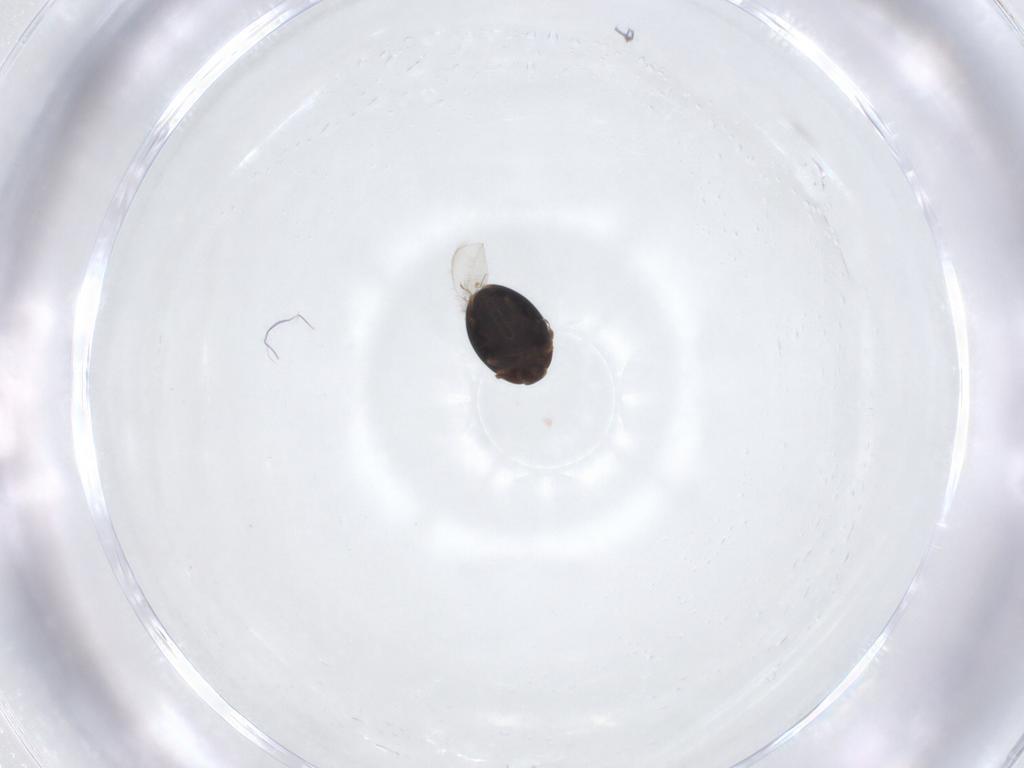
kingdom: Animalia
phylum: Arthropoda
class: Insecta
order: Coleoptera
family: Corylophidae
